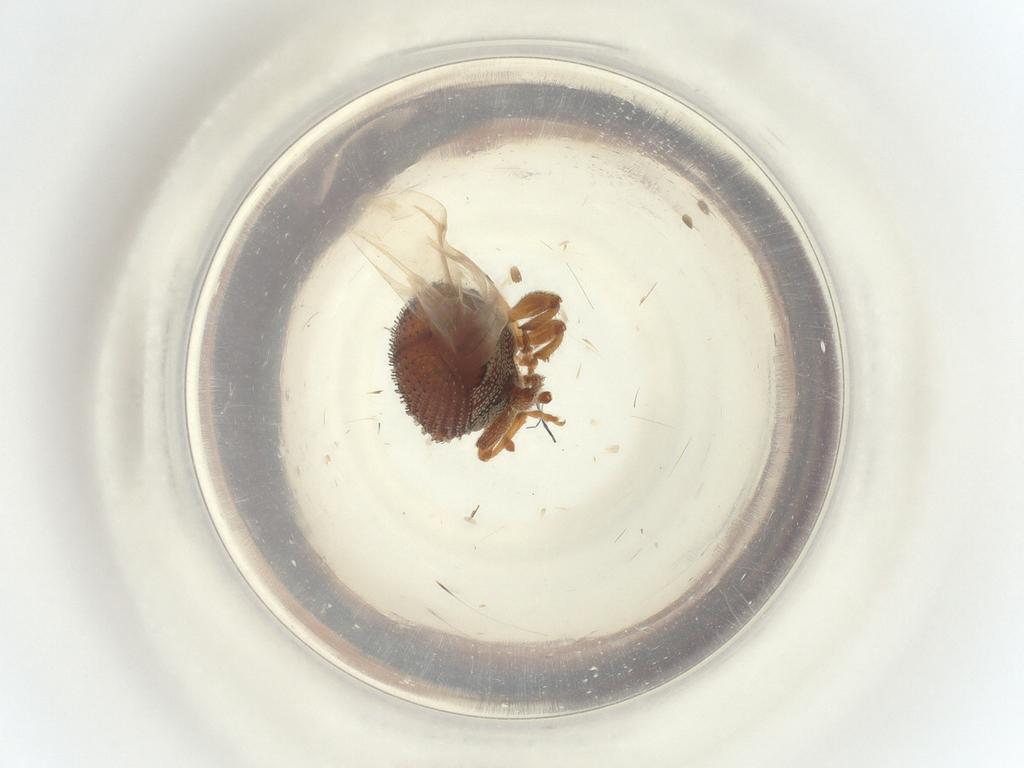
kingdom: Animalia
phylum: Arthropoda
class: Insecta
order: Coleoptera
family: Curculionidae
